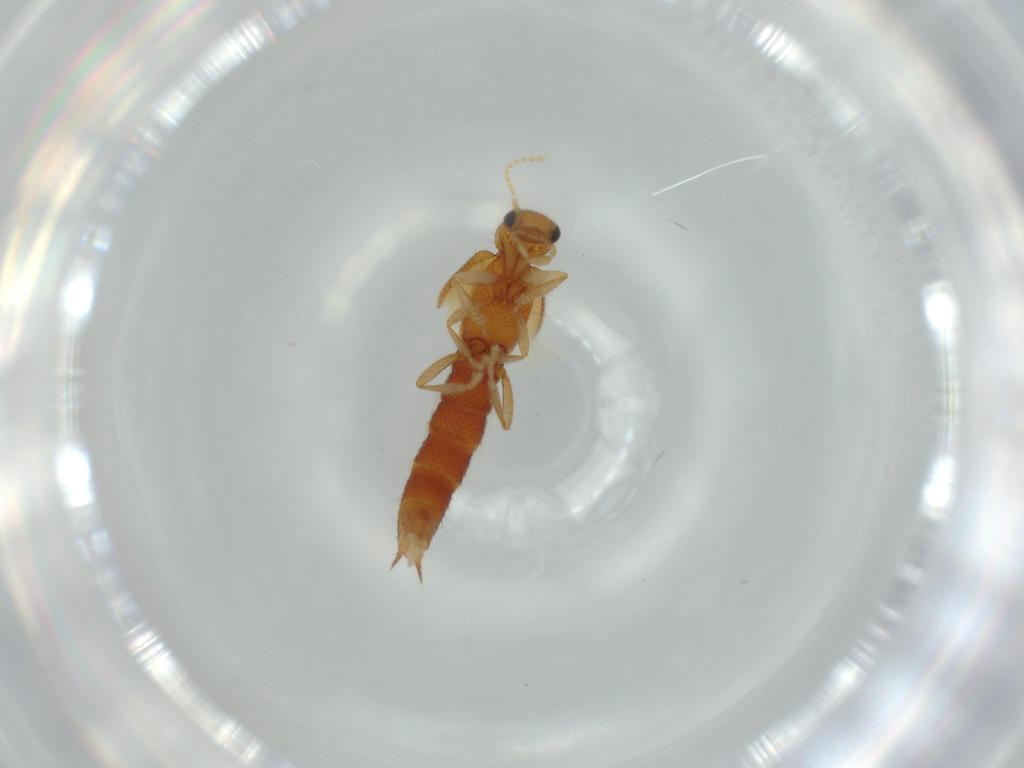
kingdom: Animalia
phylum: Arthropoda
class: Insecta
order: Coleoptera
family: Staphylinidae
